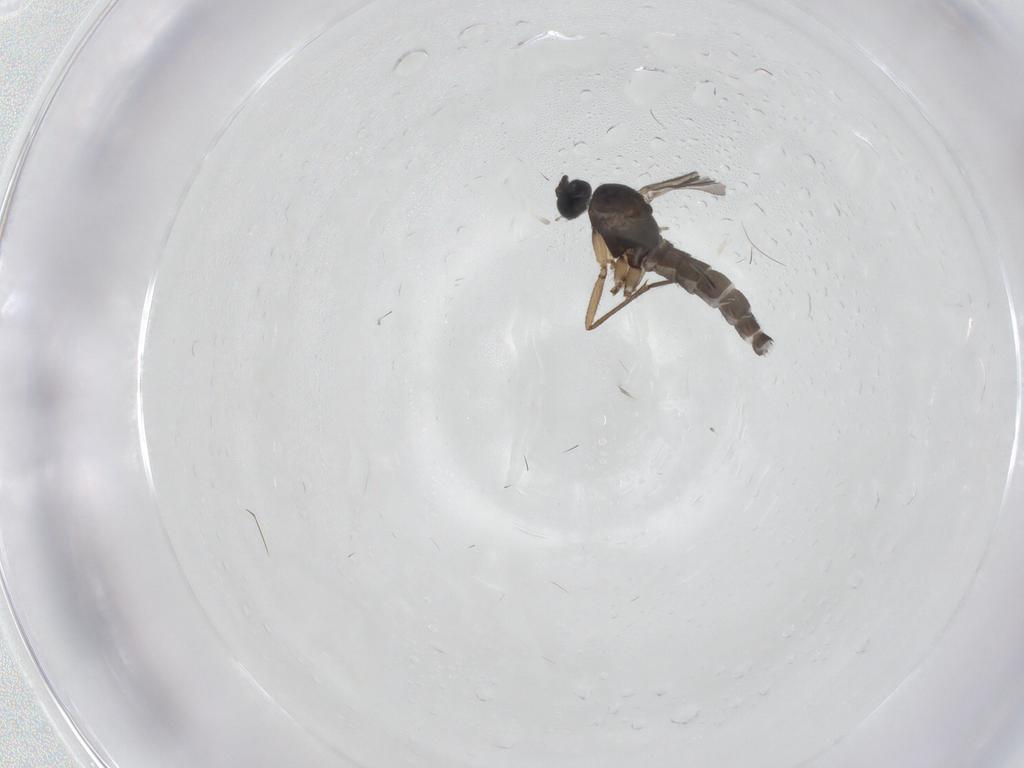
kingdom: Animalia
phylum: Arthropoda
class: Insecta
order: Diptera
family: Sciaridae
